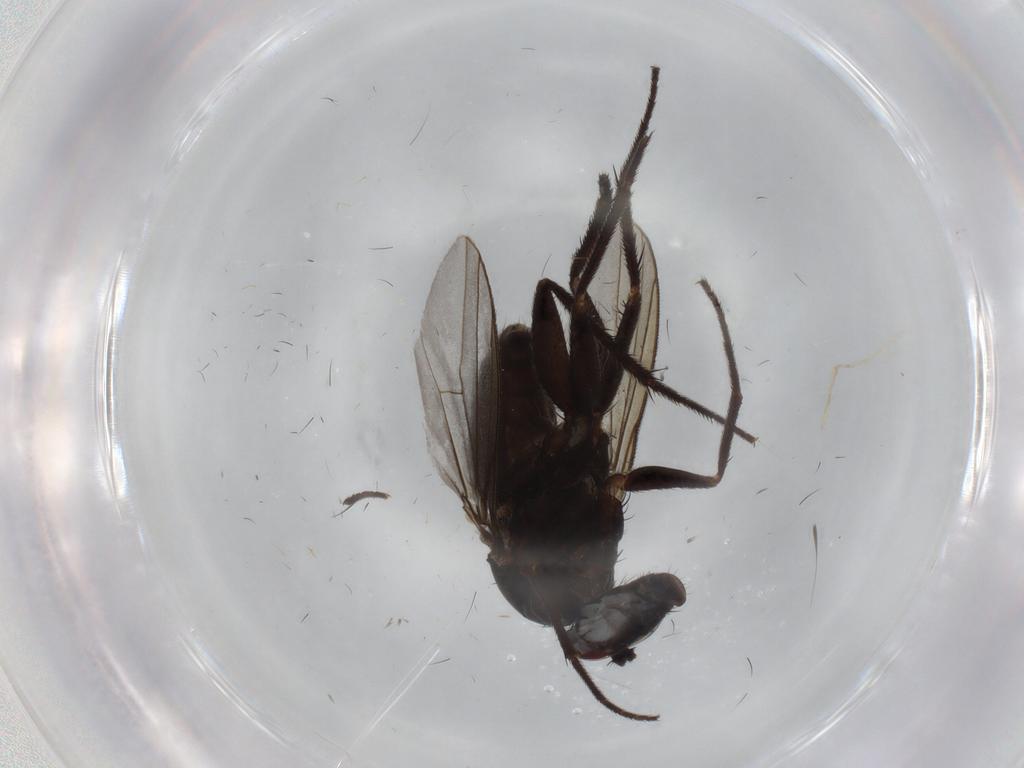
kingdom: Animalia
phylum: Arthropoda
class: Insecta
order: Diptera
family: Dolichopodidae
